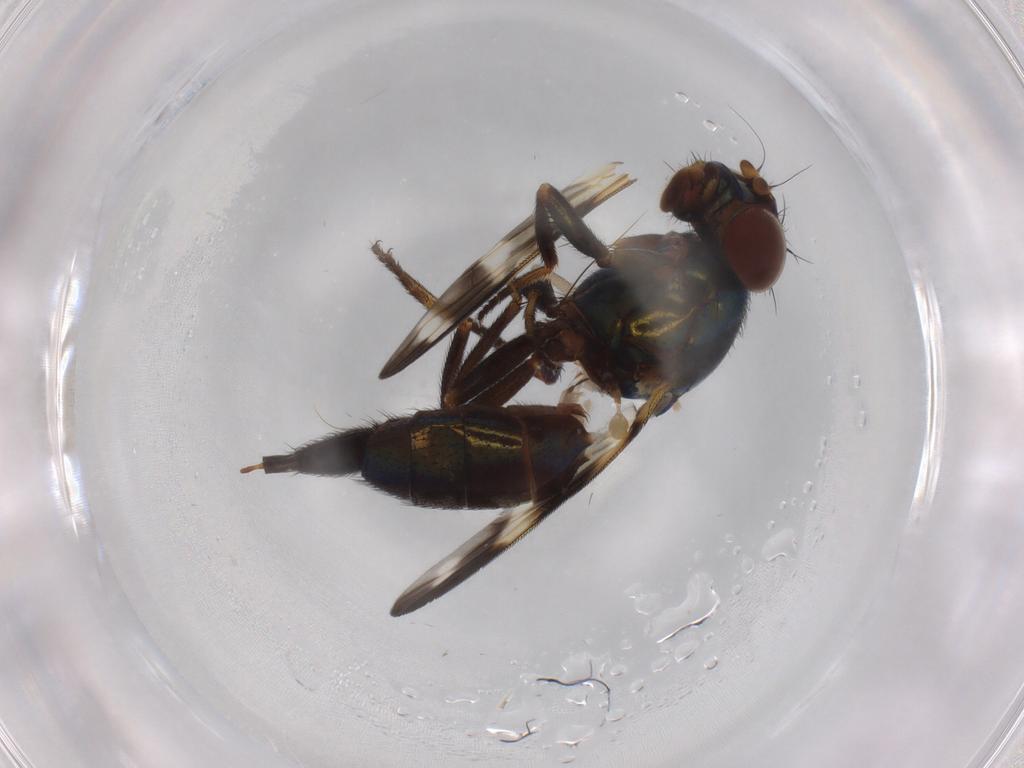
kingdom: Animalia
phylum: Arthropoda
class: Insecta
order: Diptera
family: Ulidiidae
